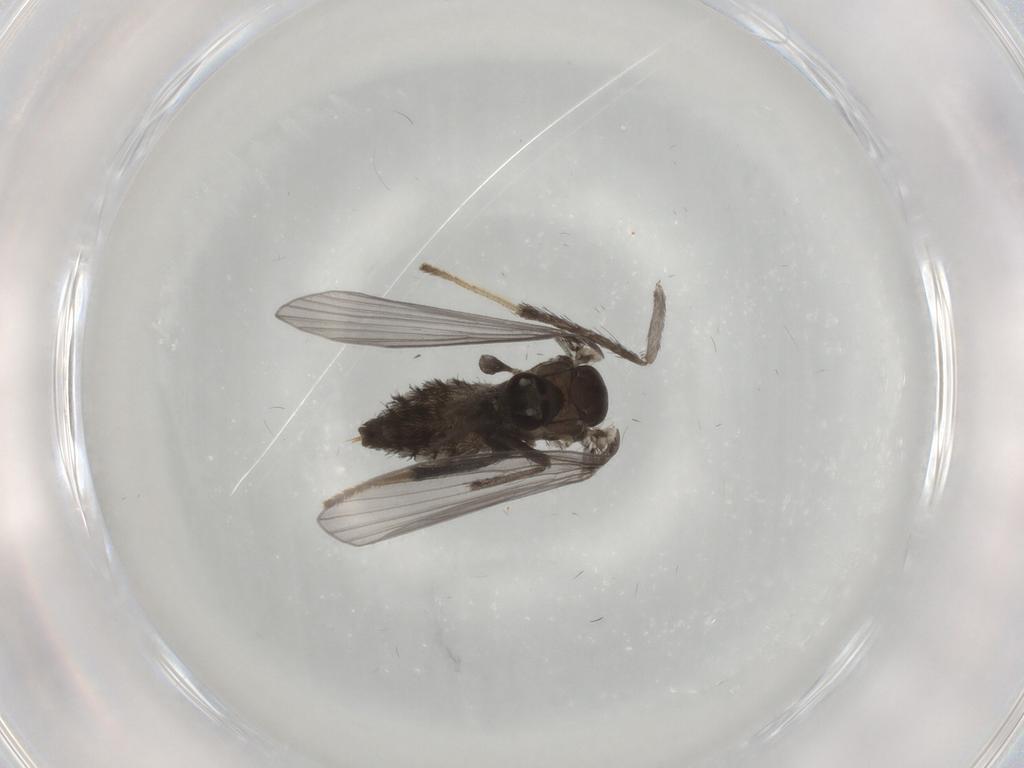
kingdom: Animalia
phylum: Arthropoda
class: Insecta
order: Diptera
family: Psychodidae
